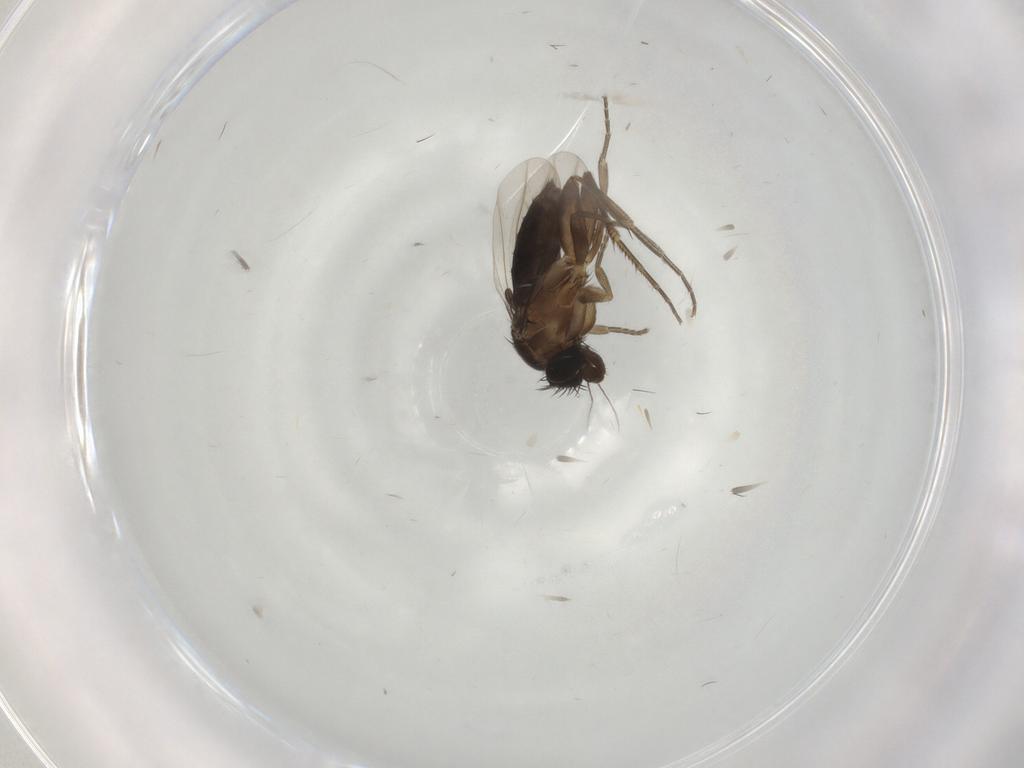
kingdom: Animalia
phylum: Arthropoda
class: Insecta
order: Diptera
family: Phoridae
